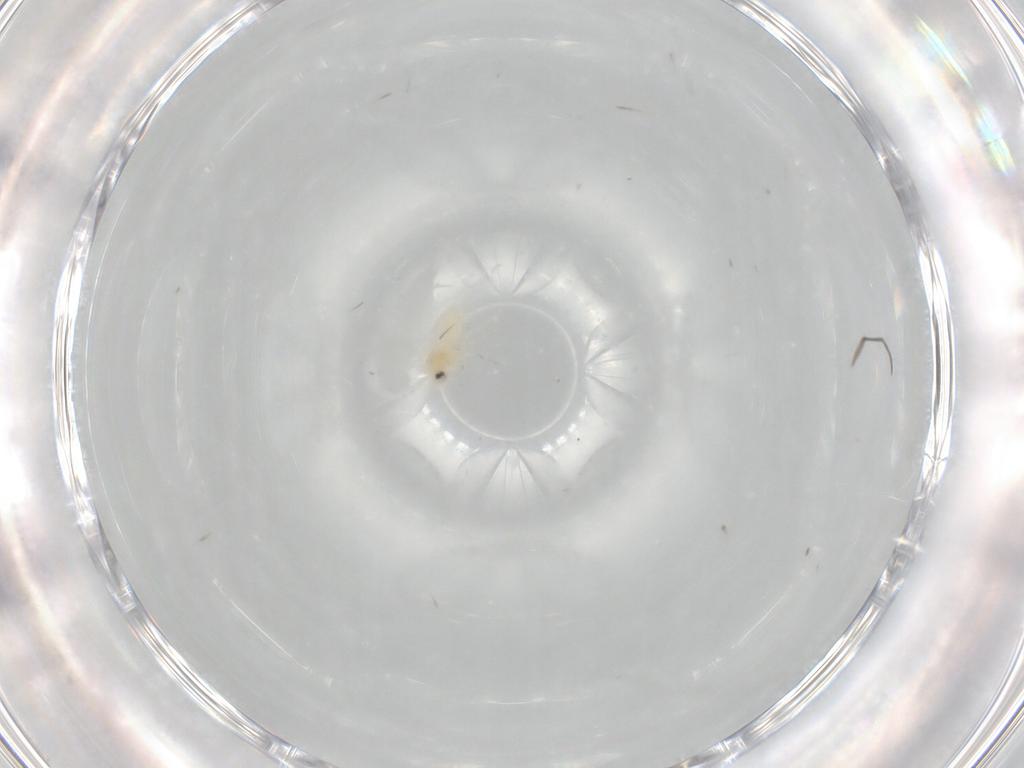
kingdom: Animalia
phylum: Arthropoda
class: Insecta
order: Hemiptera
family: Aleyrodidae
